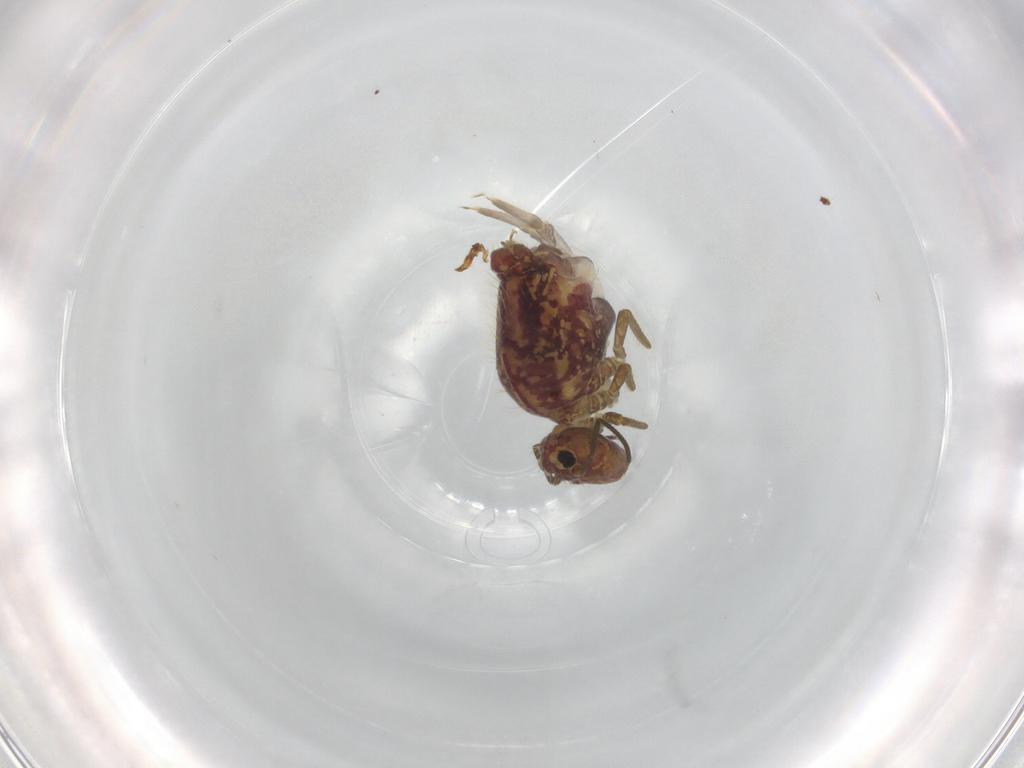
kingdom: Animalia
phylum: Arthropoda
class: Collembola
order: Symphypleona
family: Sminthuridae
